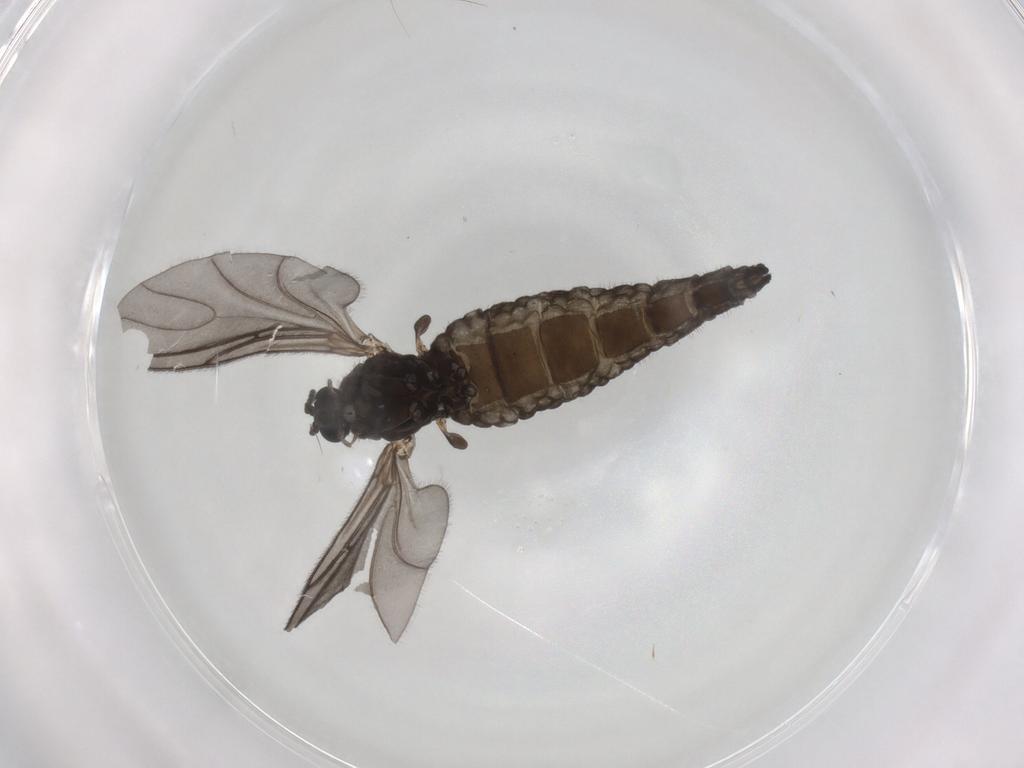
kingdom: Animalia
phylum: Arthropoda
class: Insecta
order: Diptera
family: Sciaridae
